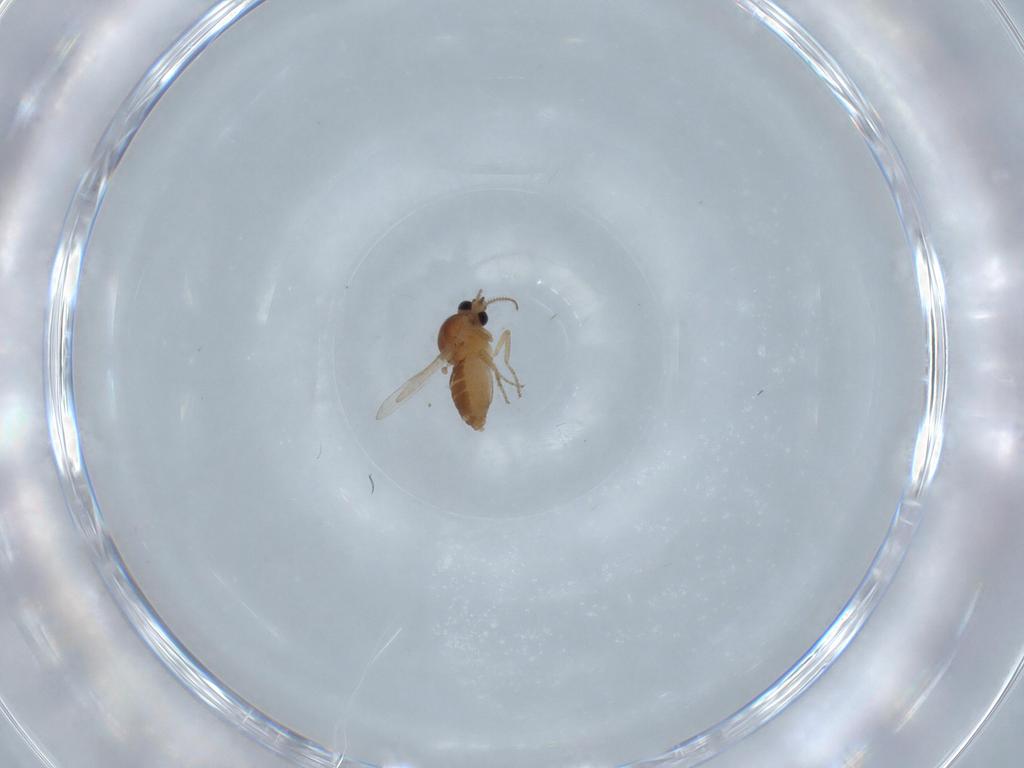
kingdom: Animalia
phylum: Arthropoda
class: Insecta
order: Diptera
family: Ceratopogonidae
